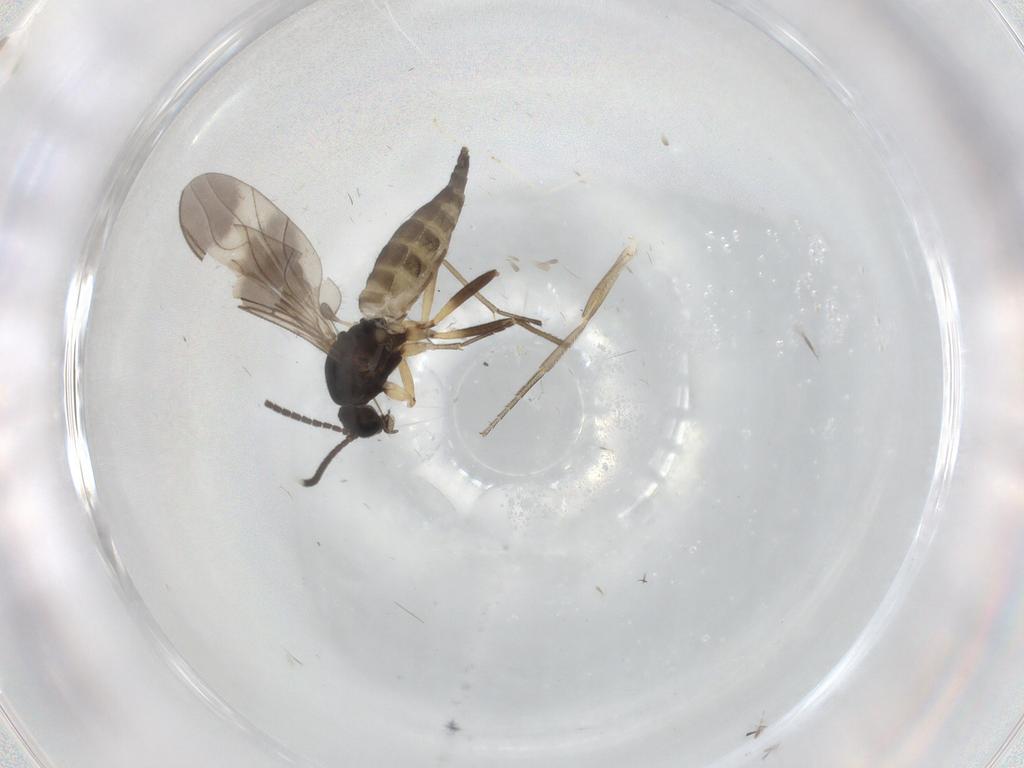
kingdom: Animalia
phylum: Arthropoda
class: Insecta
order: Diptera
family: Sciaridae
